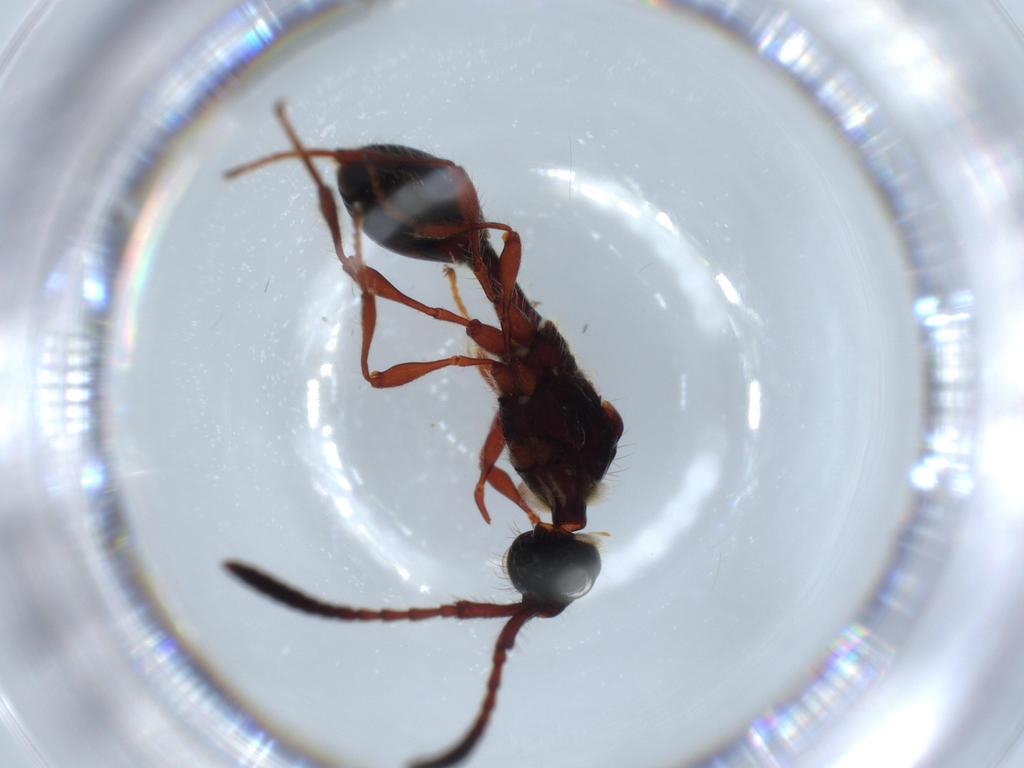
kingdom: Animalia
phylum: Arthropoda
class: Insecta
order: Hymenoptera
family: Diapriidae
